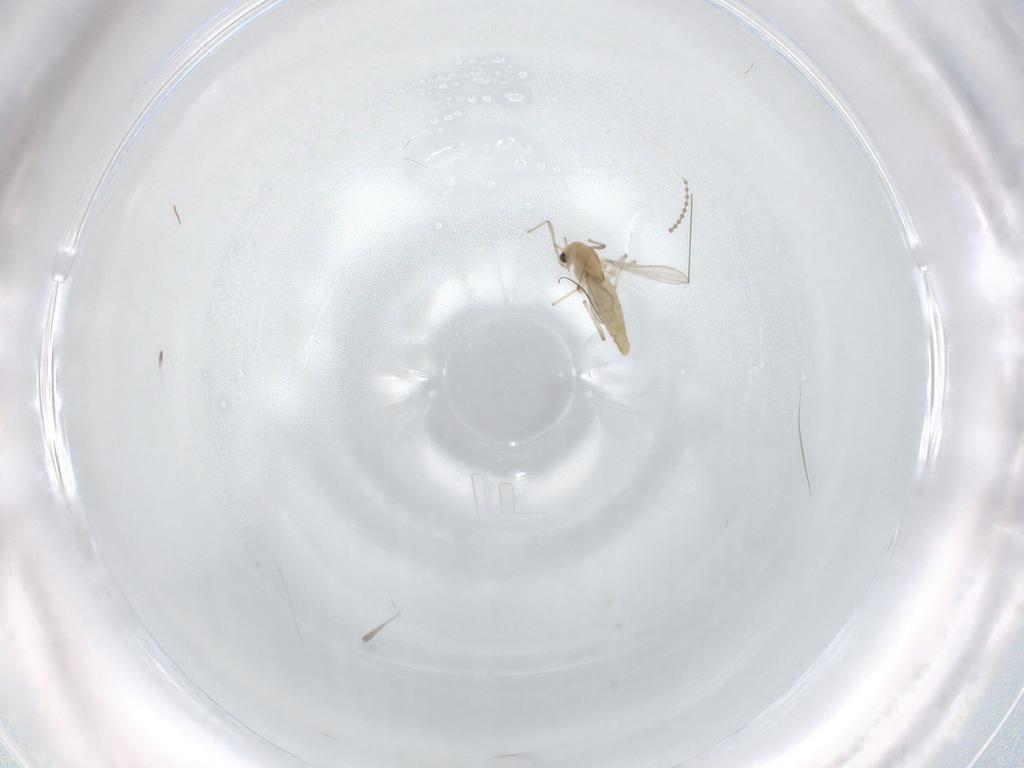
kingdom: Animalia
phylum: Arthropoda
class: Insecta
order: Diptera
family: Chironomidae
